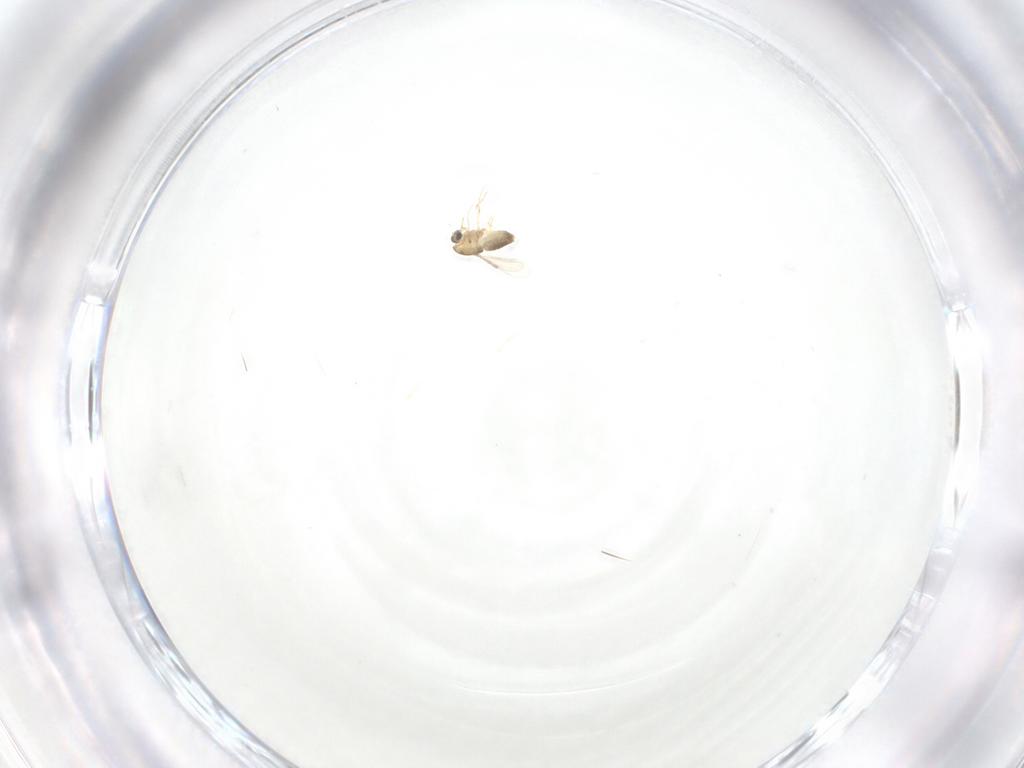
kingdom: Animalia
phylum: Arthropoda
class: Insecta
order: Diptera
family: Psychodidae
